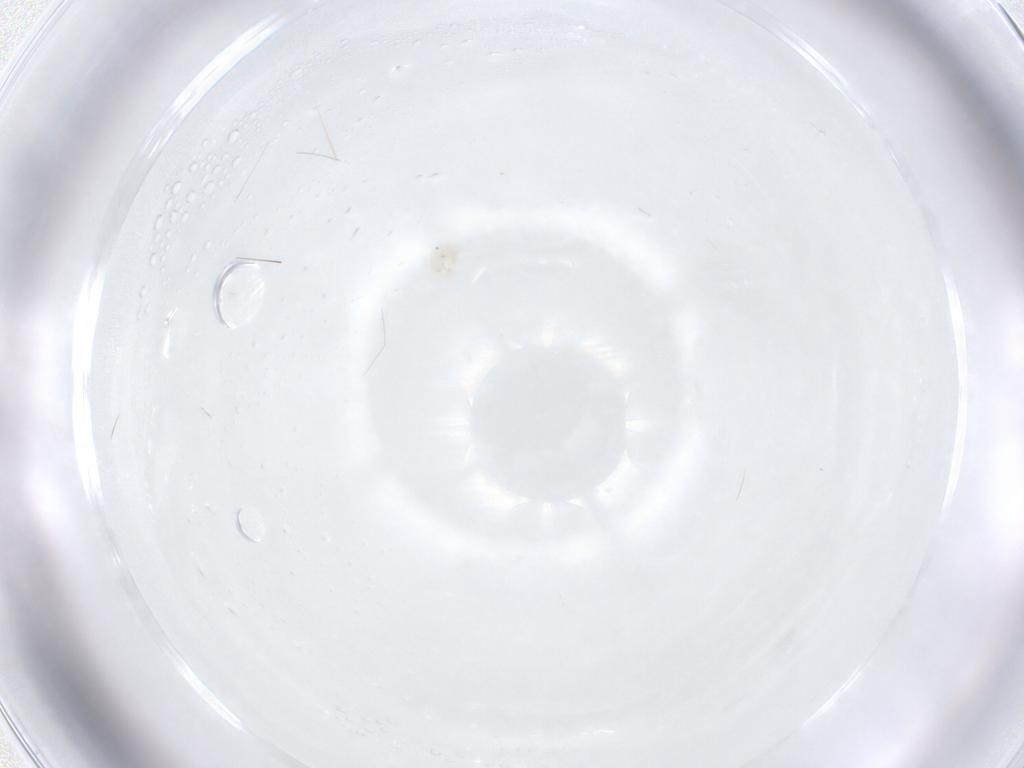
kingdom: Animalia
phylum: Arthropoda
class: Arachnida
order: Trombidiformes
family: Anystidae
